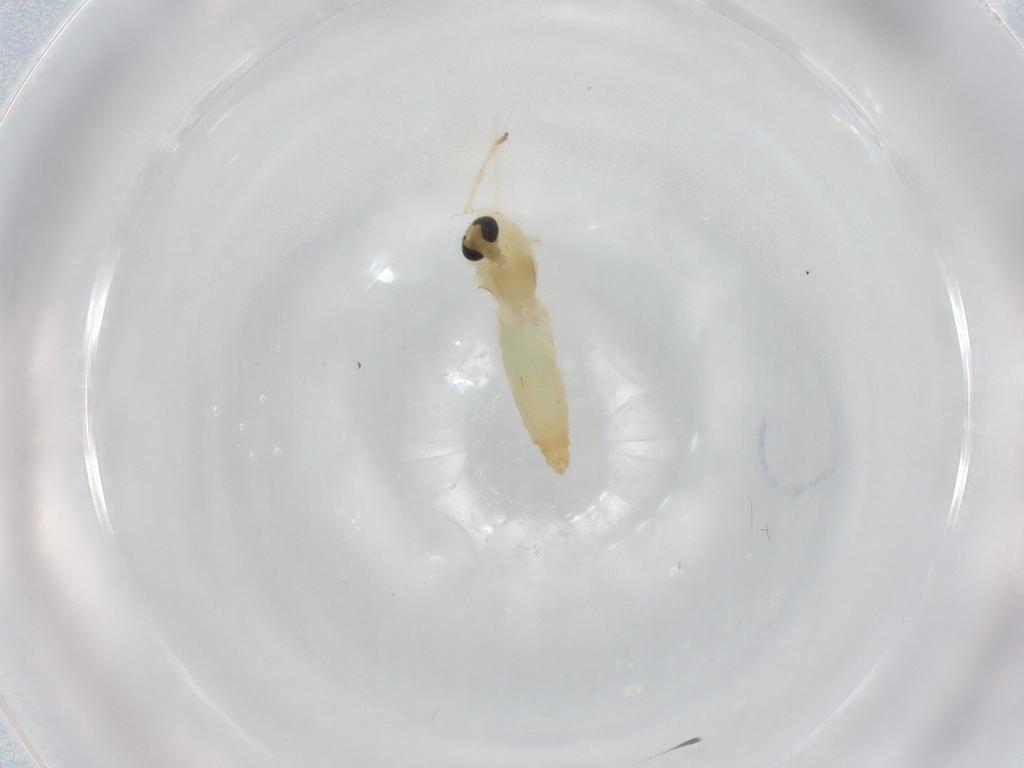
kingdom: Animalia
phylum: Arthropoda
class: Insecta
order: Diptera
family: Chironomidae
